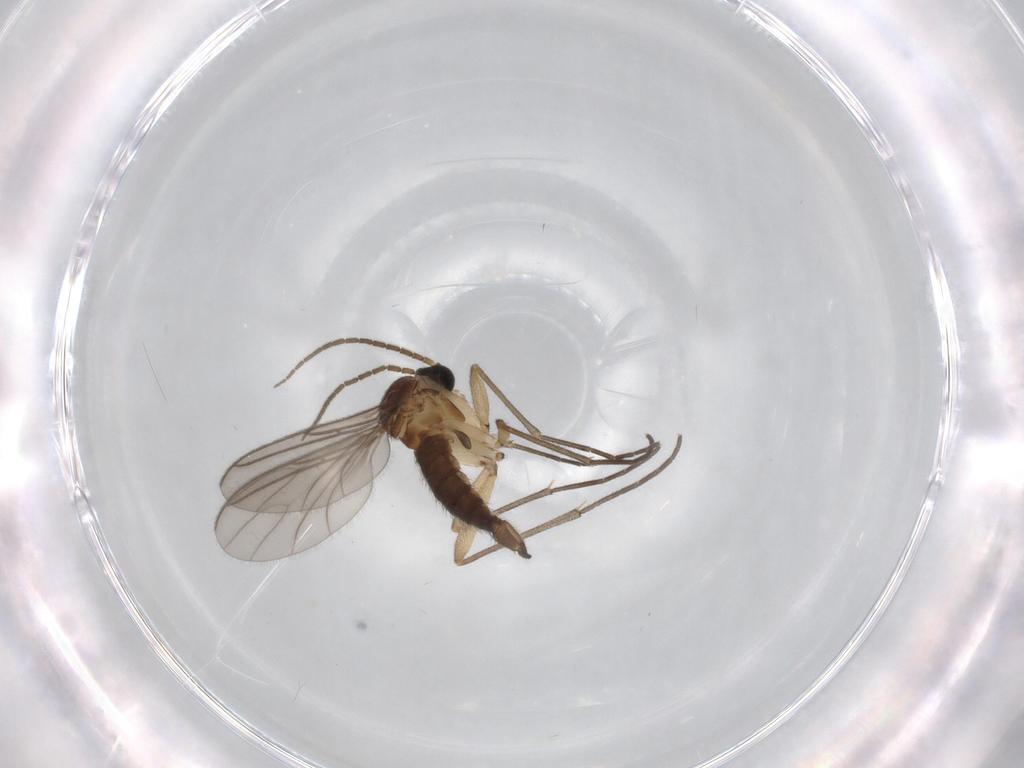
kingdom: Animalia
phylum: Arthropoda
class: Insecta
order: Diptera
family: Sciaridae
